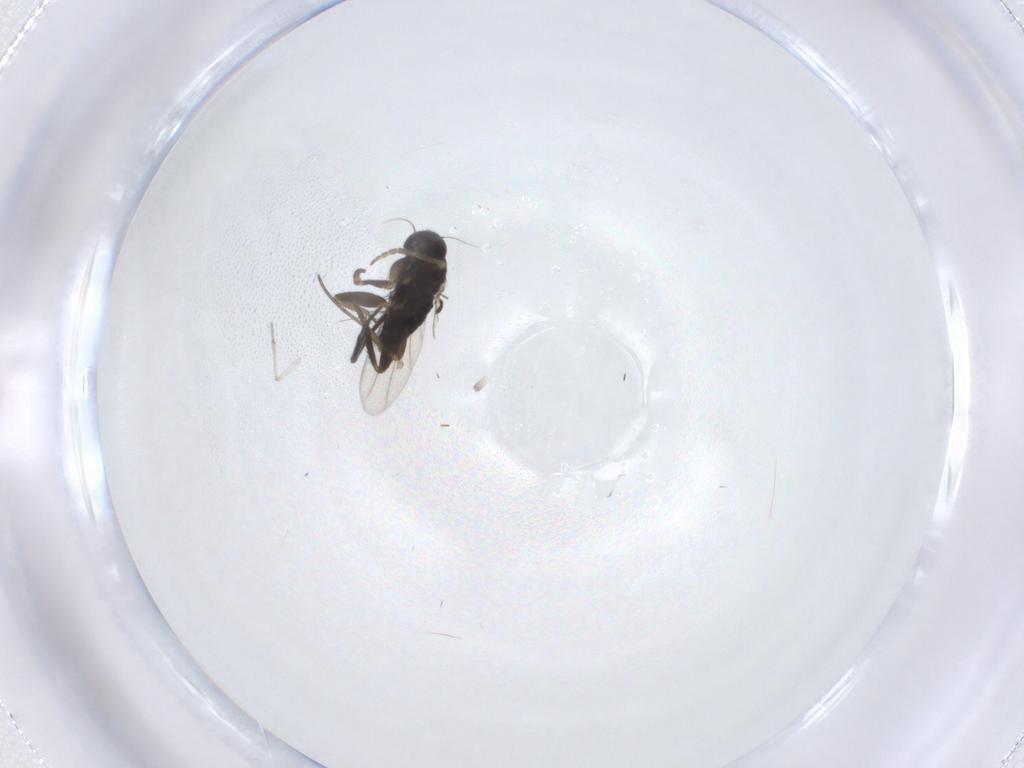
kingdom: Animalia
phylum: Arthropoda
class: Insecta
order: Diptera
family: Psychodidae
